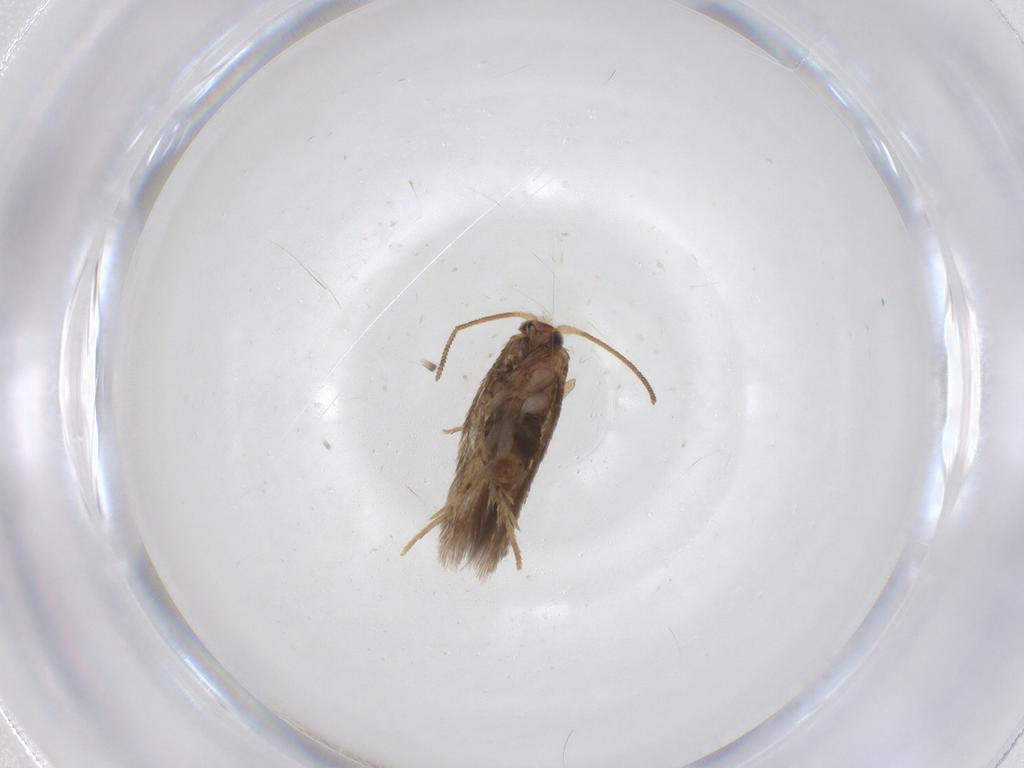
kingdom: Animalia
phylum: Arthropoda
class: Insecta
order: Lepidoptera
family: Nepticulidae
